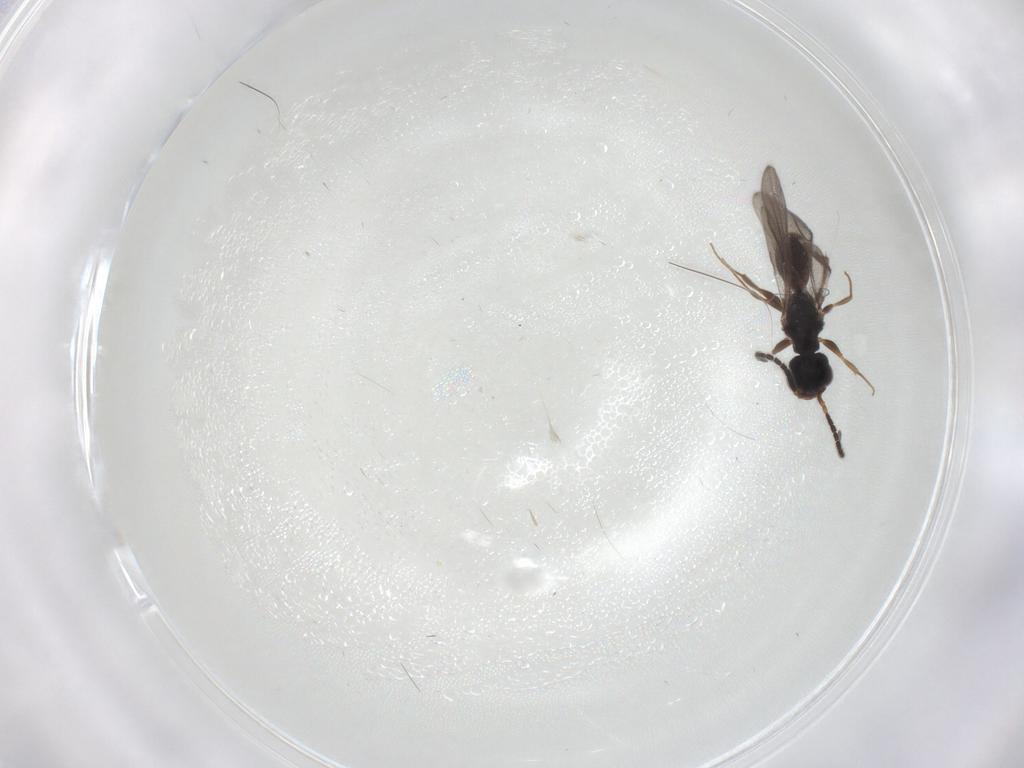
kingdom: Animalia
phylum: Arthropoda
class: Insecta
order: Hymenoptera
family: Bethylidae
